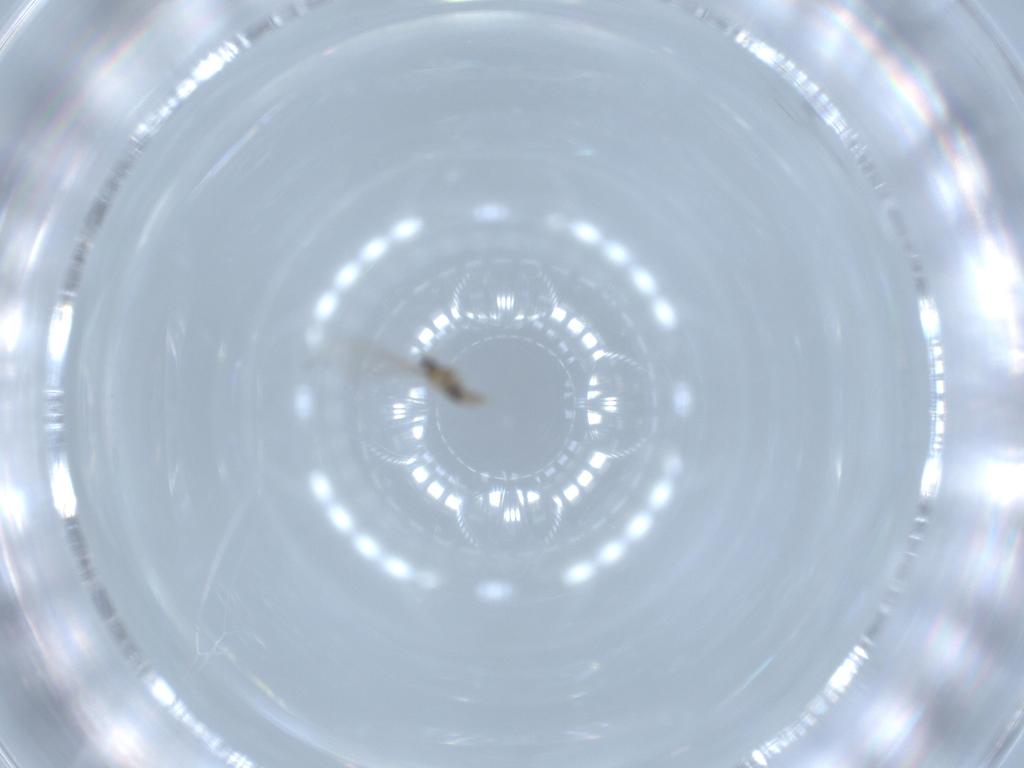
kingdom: Animalia
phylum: Arthropoda
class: Insecta
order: Diptera
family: Cecidomyiidae
